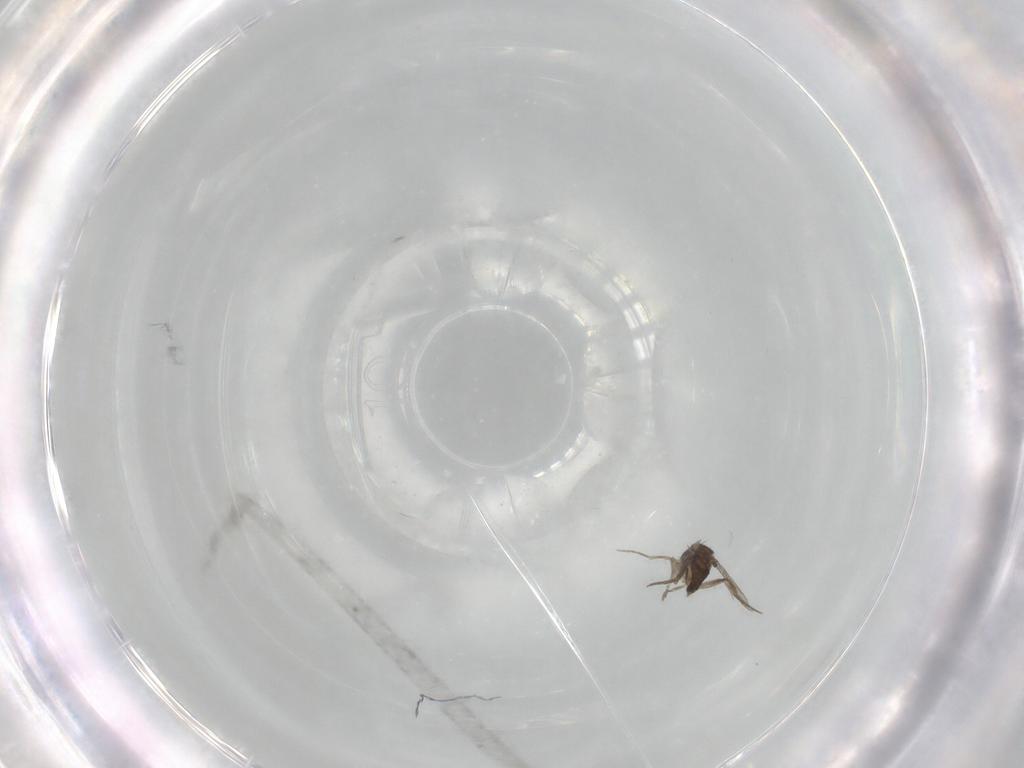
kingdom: Animalia
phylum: Arthropoda
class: Insecta
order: Diptera
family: Phoridae
